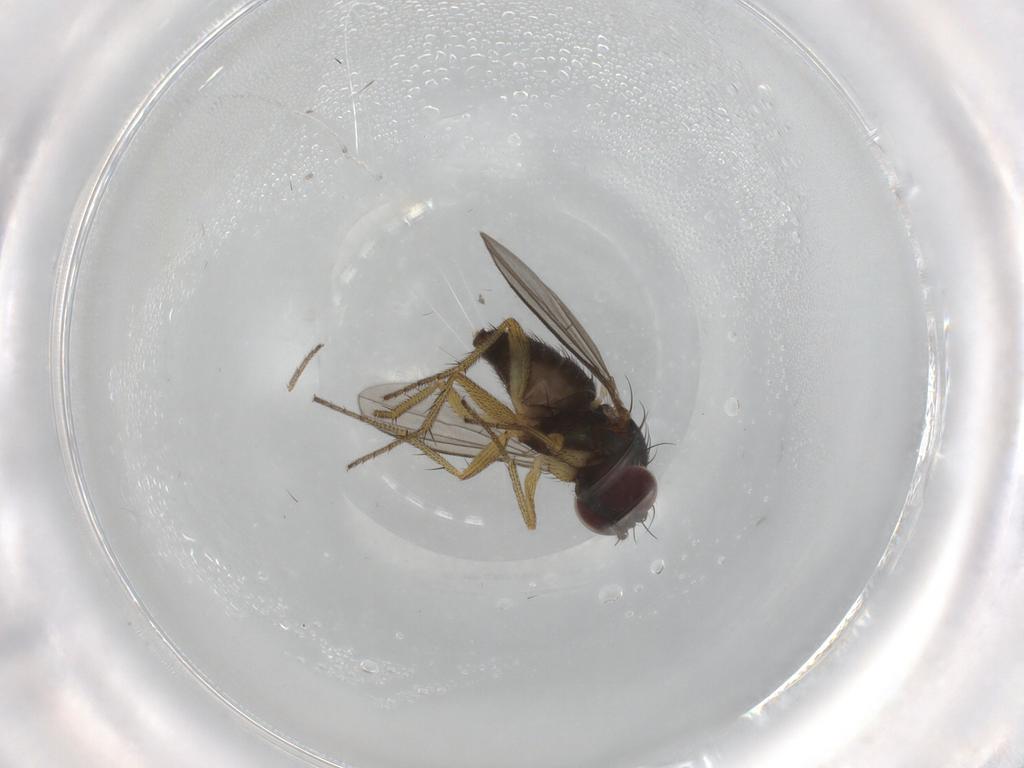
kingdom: Animalia
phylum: Arthropoda
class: Insecta
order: Diptera
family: Dolichopodidae
